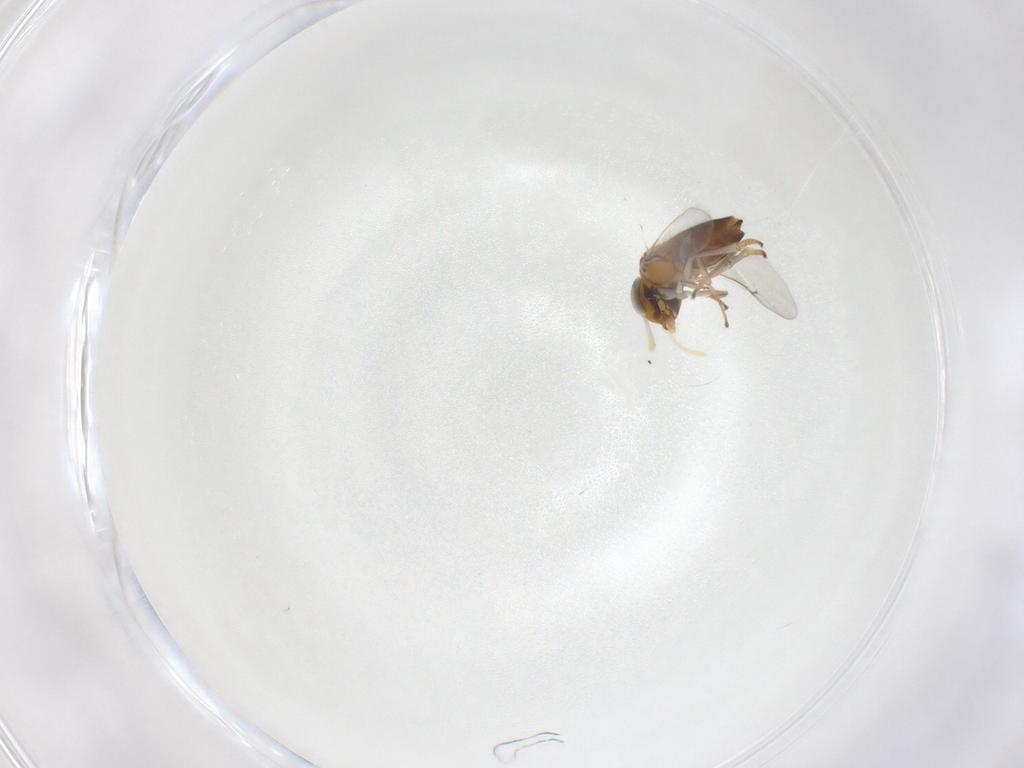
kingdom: Animalia
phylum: Arthropoda
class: Insecta
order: Hymenoptera
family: Encyrtidae
